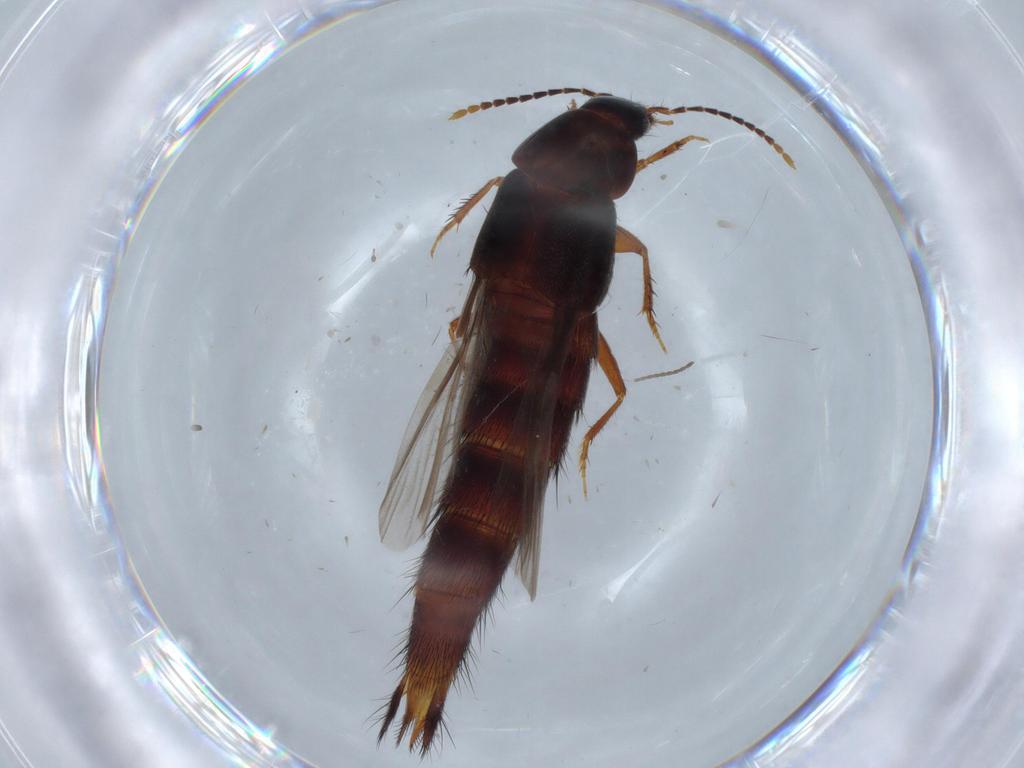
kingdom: Animalia
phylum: Arthropoda
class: Insecta
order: Coleoptera
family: Staphylinidae
